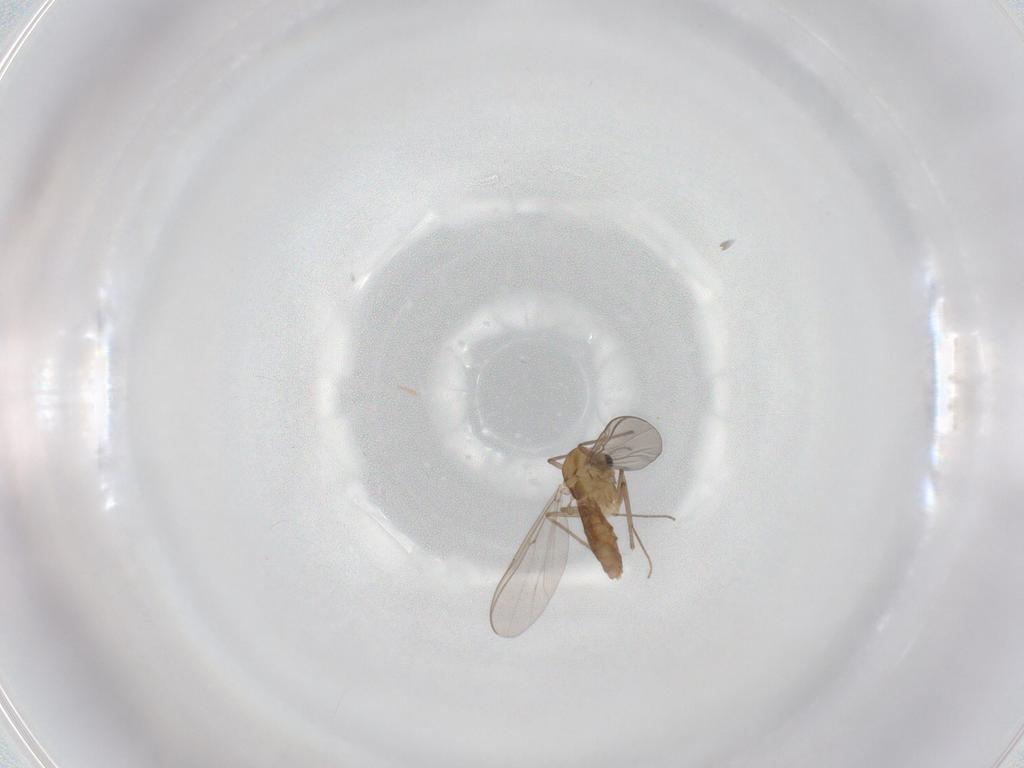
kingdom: Animalia
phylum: Arthropoda
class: Insecta
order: Diptera
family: Chironomidae
